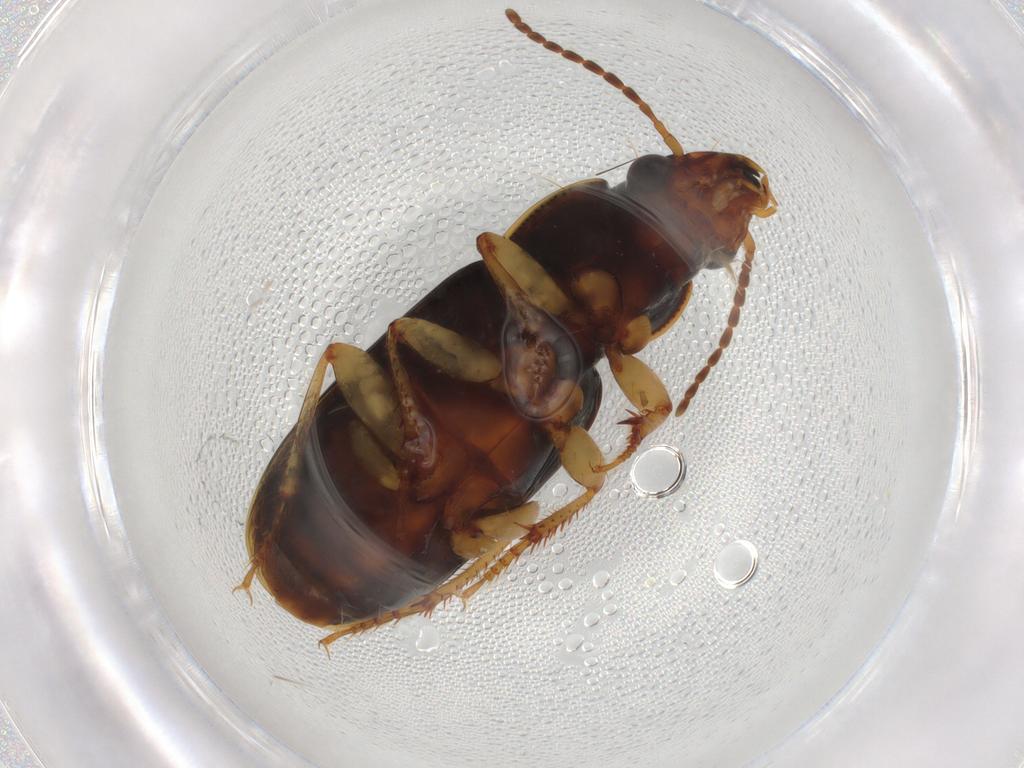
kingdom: Animalia
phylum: Arthropoda
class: Insecta
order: Coleoptera
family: Carabidae
